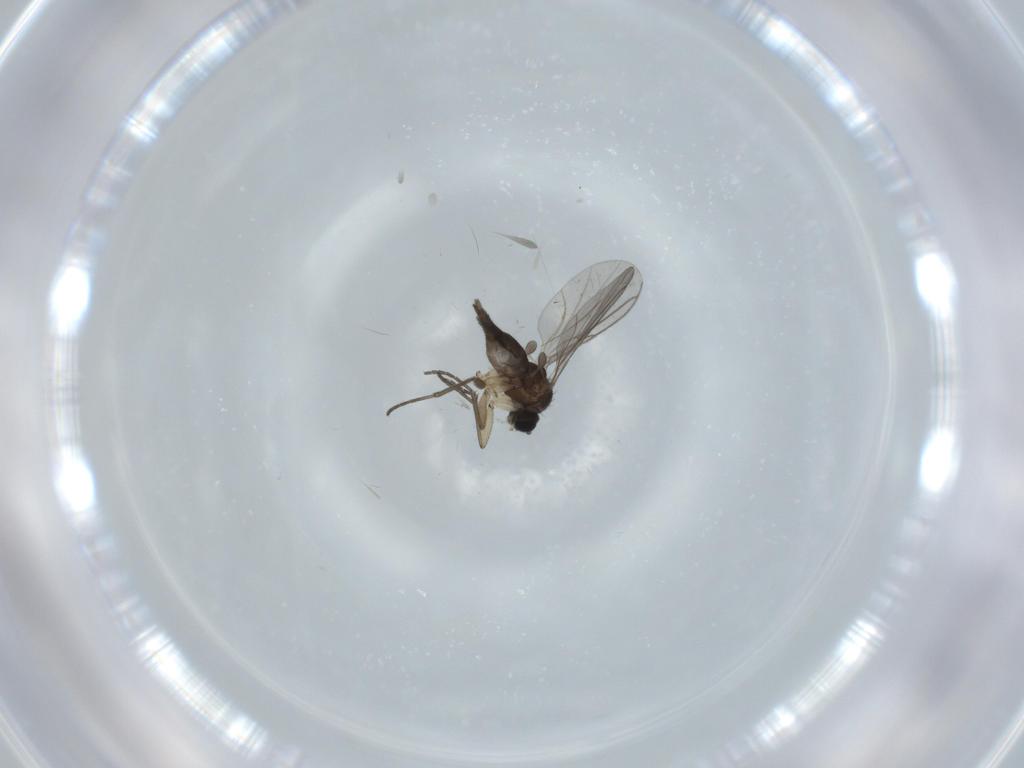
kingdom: Animalia
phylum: Arthropoda
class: Insecta
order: Diptera
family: Sciaridae
